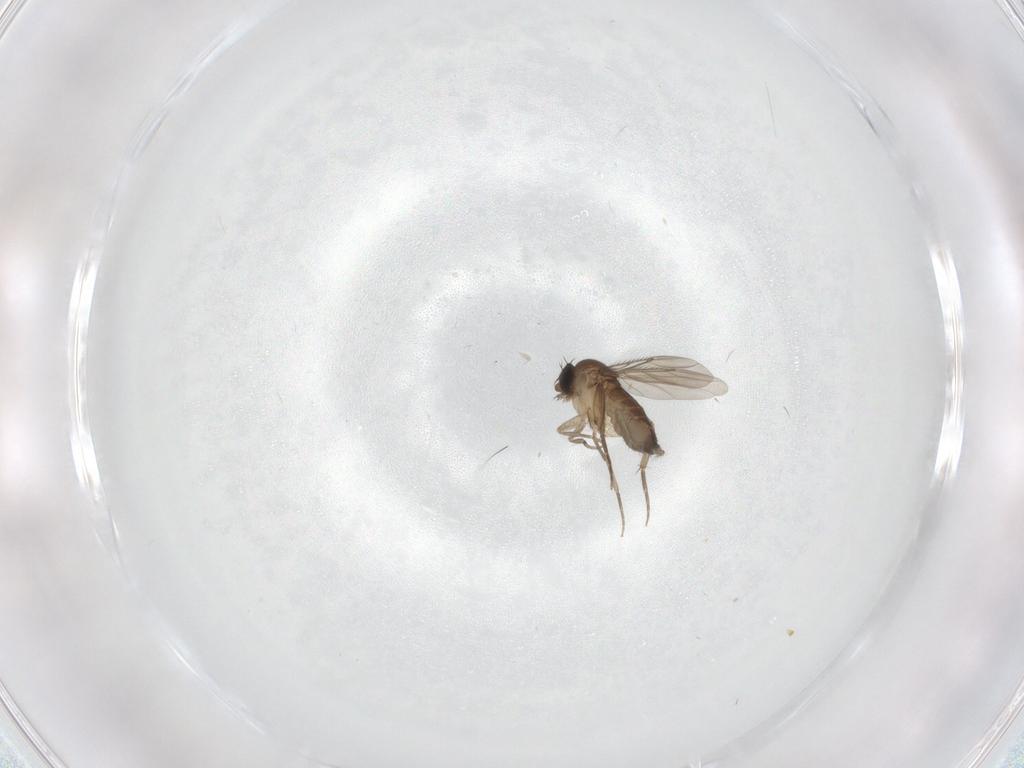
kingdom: Animalia
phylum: Arthropoda
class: Insecta
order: Diptera
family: Phoridae
